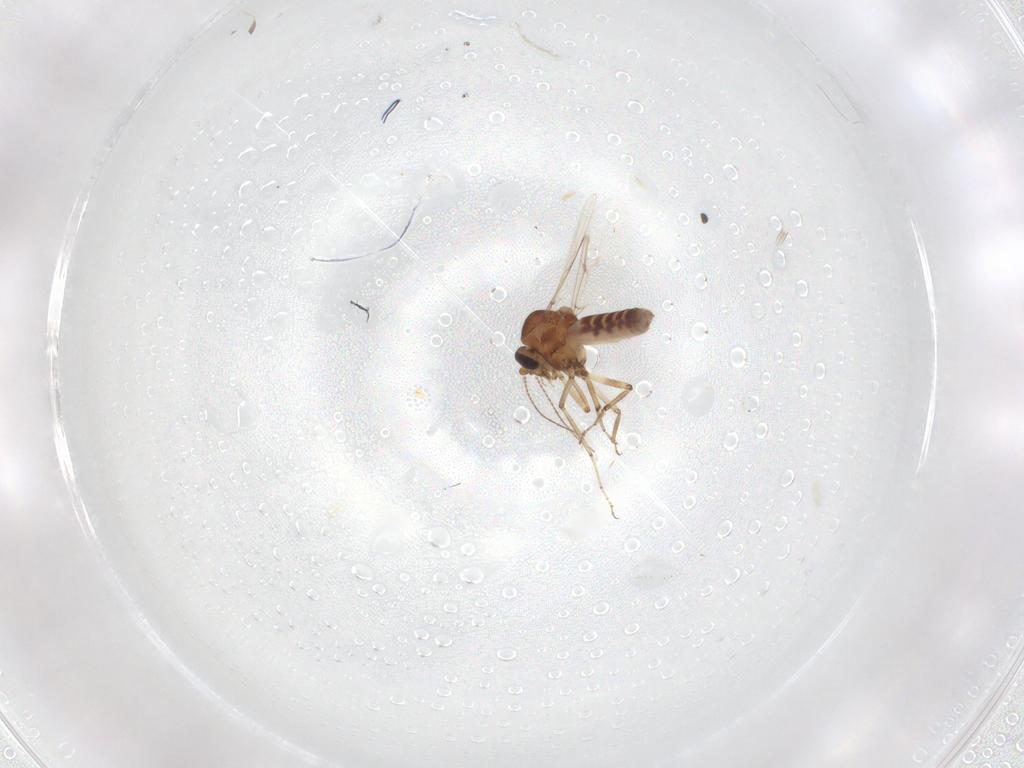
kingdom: Animalia
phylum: Arthropoda
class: Insecta
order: Diptera
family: Ceratopogonidae
